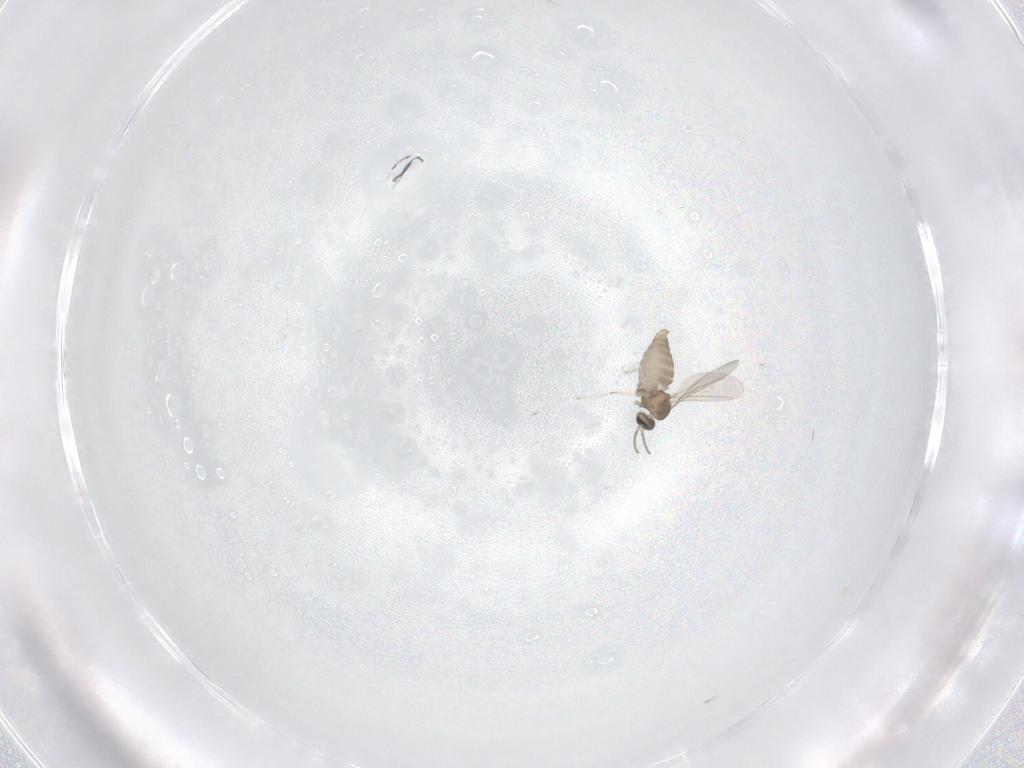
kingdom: Animalia
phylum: Arthropoda
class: Insecta
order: Diptera
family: Cecidomyiidae
